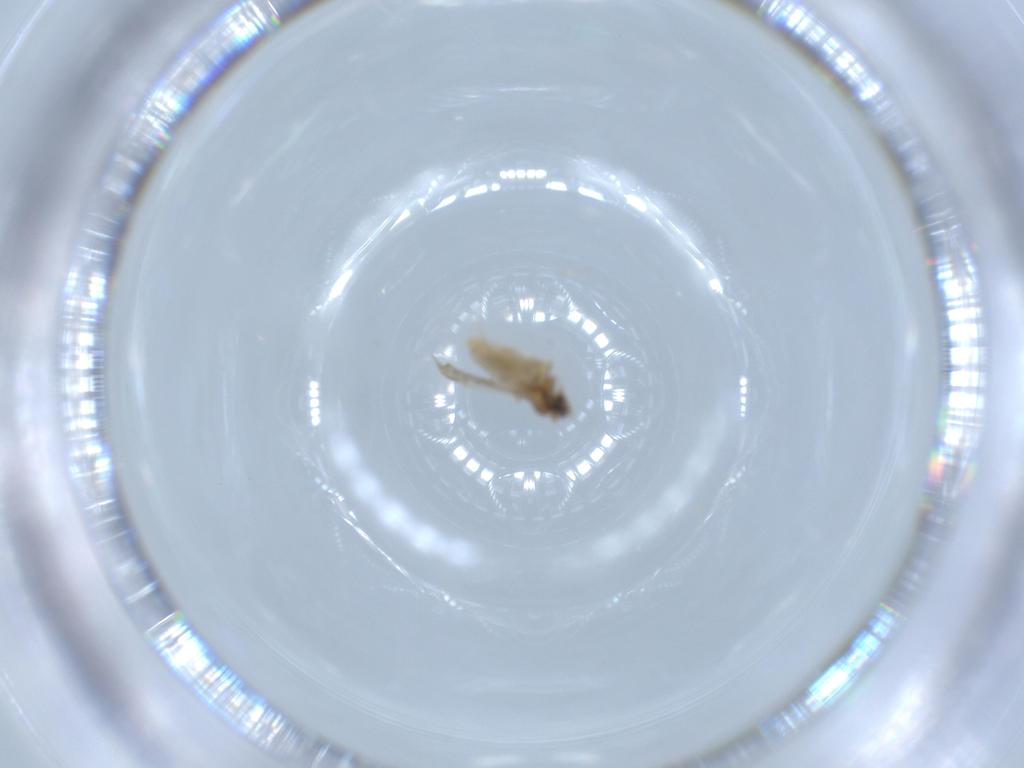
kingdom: Animalia
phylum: Arthropoda
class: Insecta
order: Diptera
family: Cecidomyiidae
